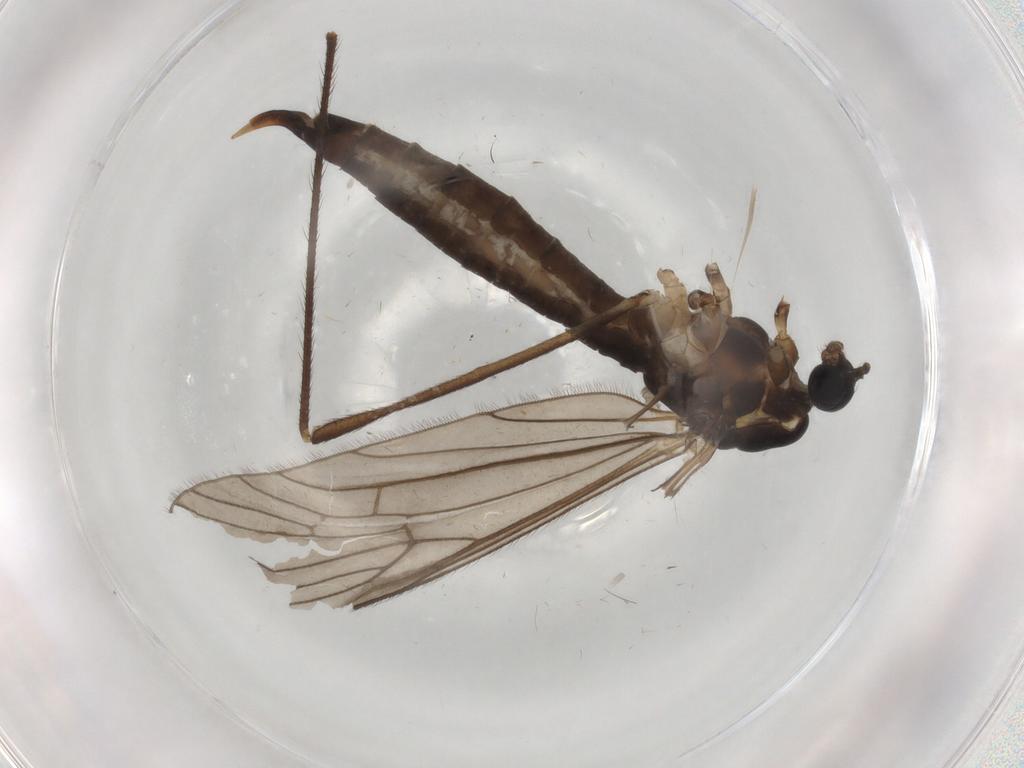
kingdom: Animalia
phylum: Arthropoda
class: Insecta
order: Diptera
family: Limoniidae
